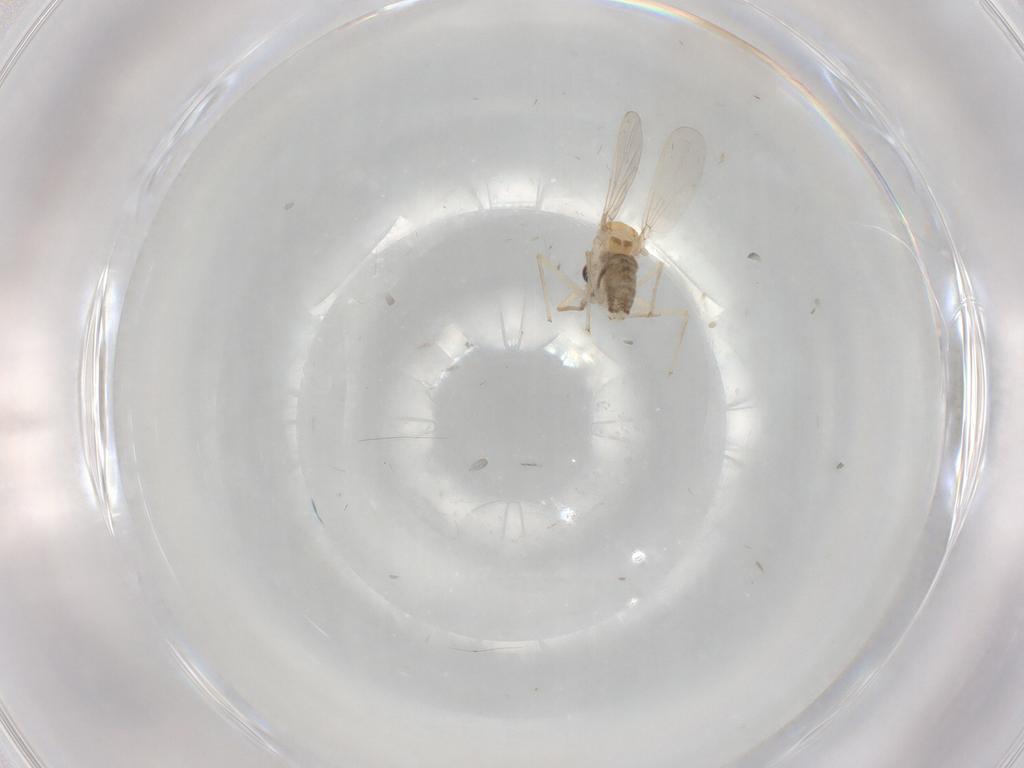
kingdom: Animalia
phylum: Arthropoda
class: Insecta
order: Diptera
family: Chironomidae
